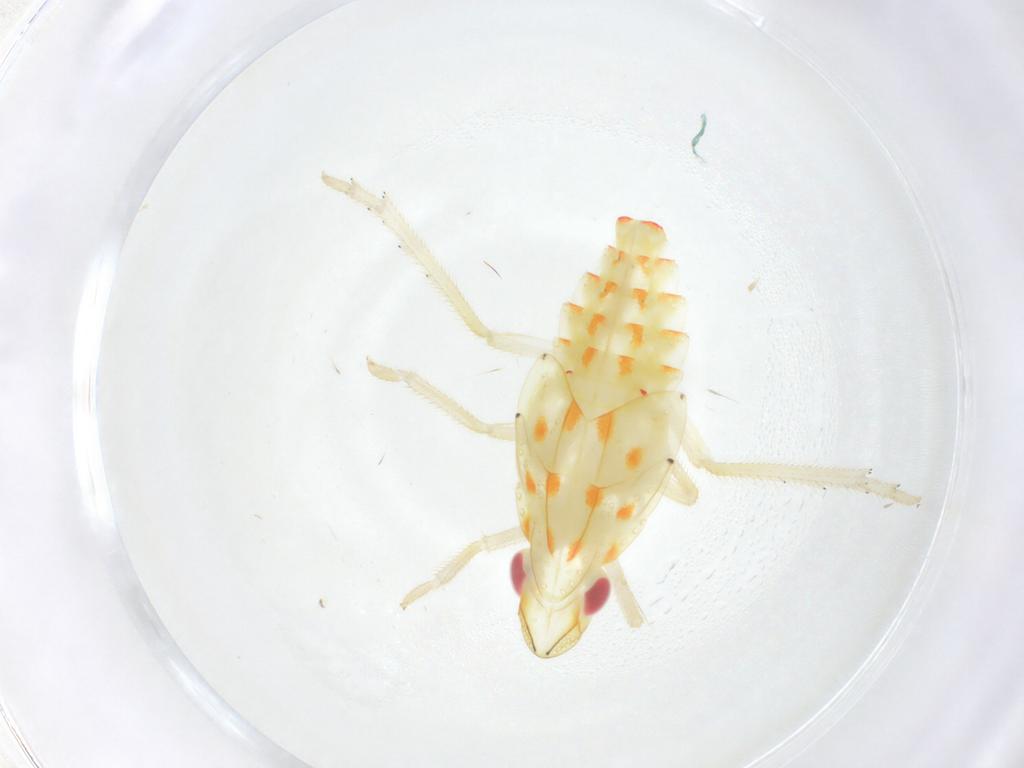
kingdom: Animalia
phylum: Arthropoda
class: Insecta
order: Hemiptera
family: Tropiduchidae
